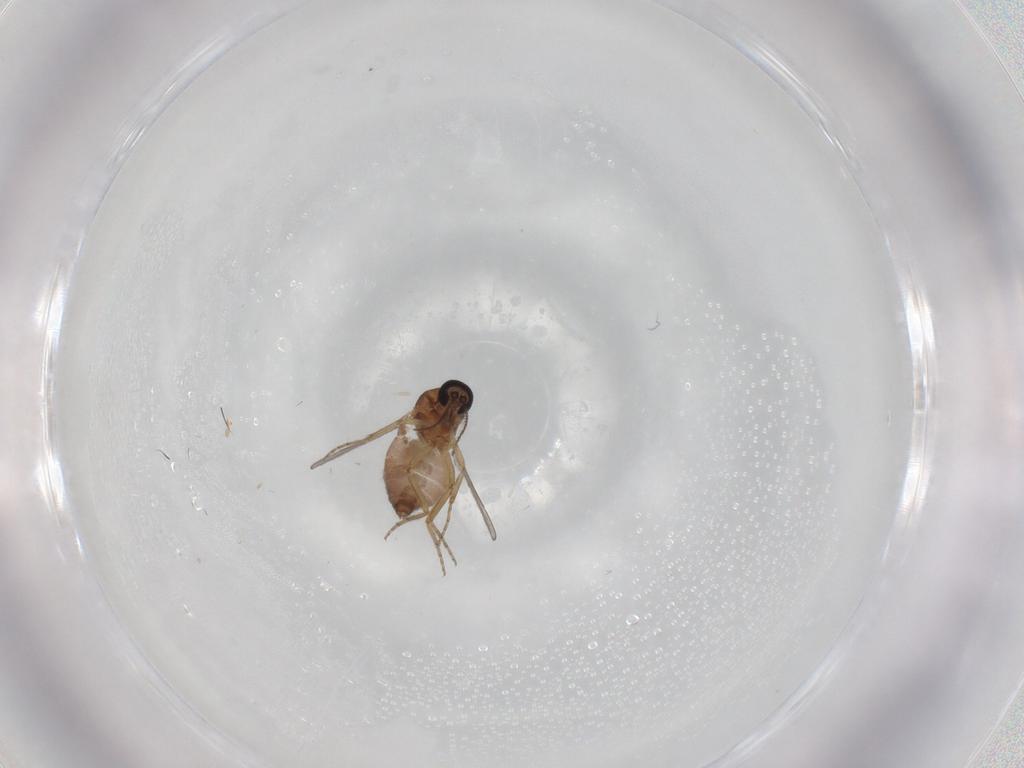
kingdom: Animalia
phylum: Arthropoda
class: Insecta
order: Diptera
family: Ceratopogonidae
